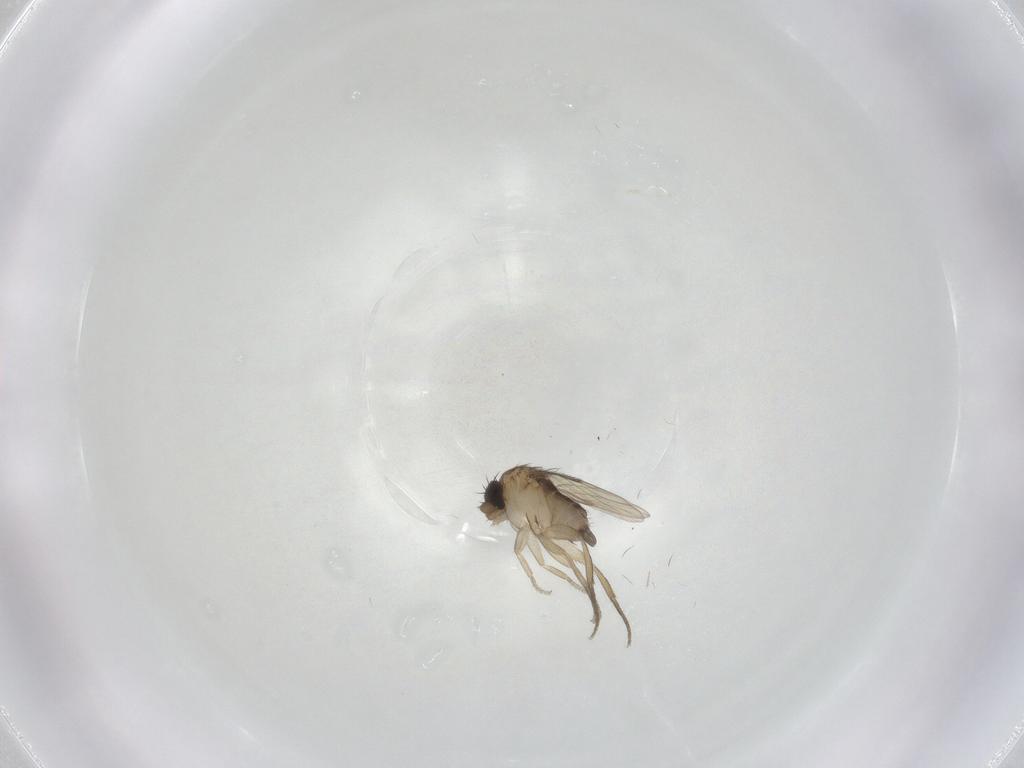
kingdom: Animalia
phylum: Arthropoda
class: Insecta
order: Diptera
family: Phoridae
